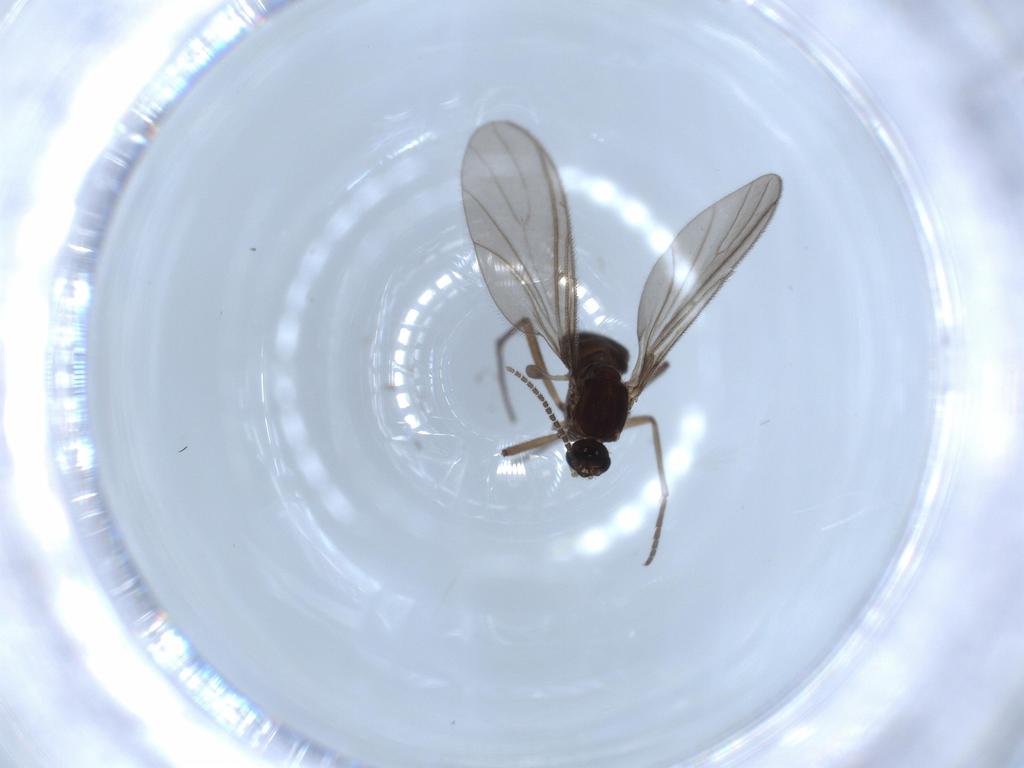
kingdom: Animalia
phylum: Arthropoda
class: Insecta
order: Diptera
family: Sciaridae
